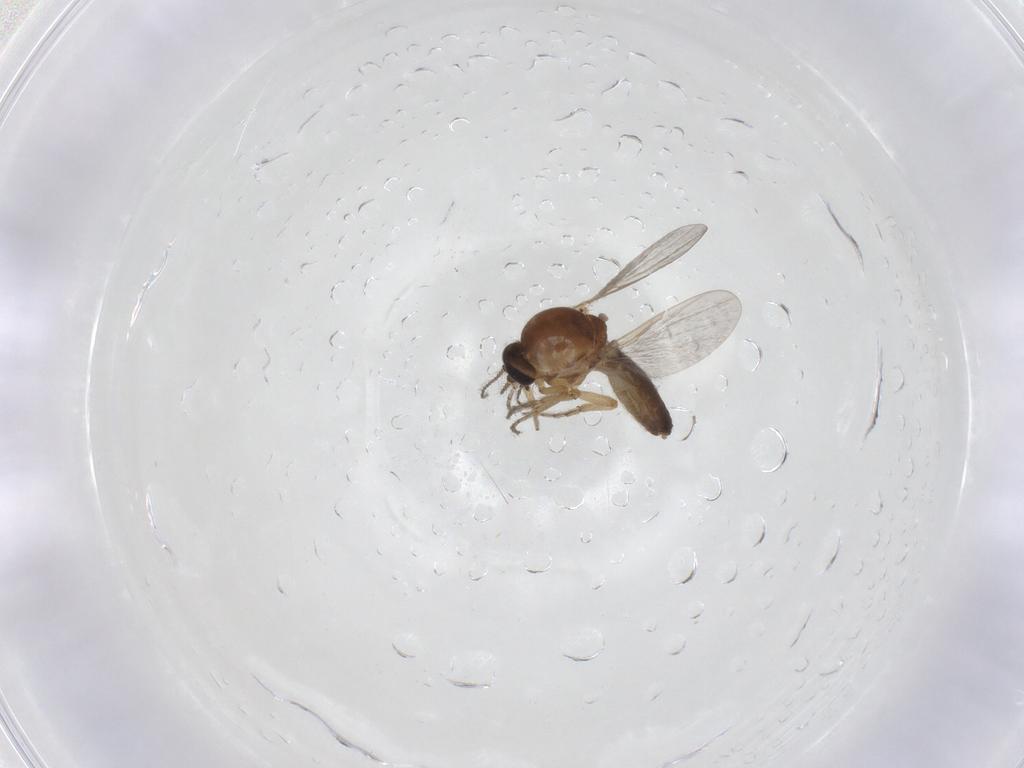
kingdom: Animalia
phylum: Arthropoda
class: Insecta
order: Diptera
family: Ceratopogonidae
